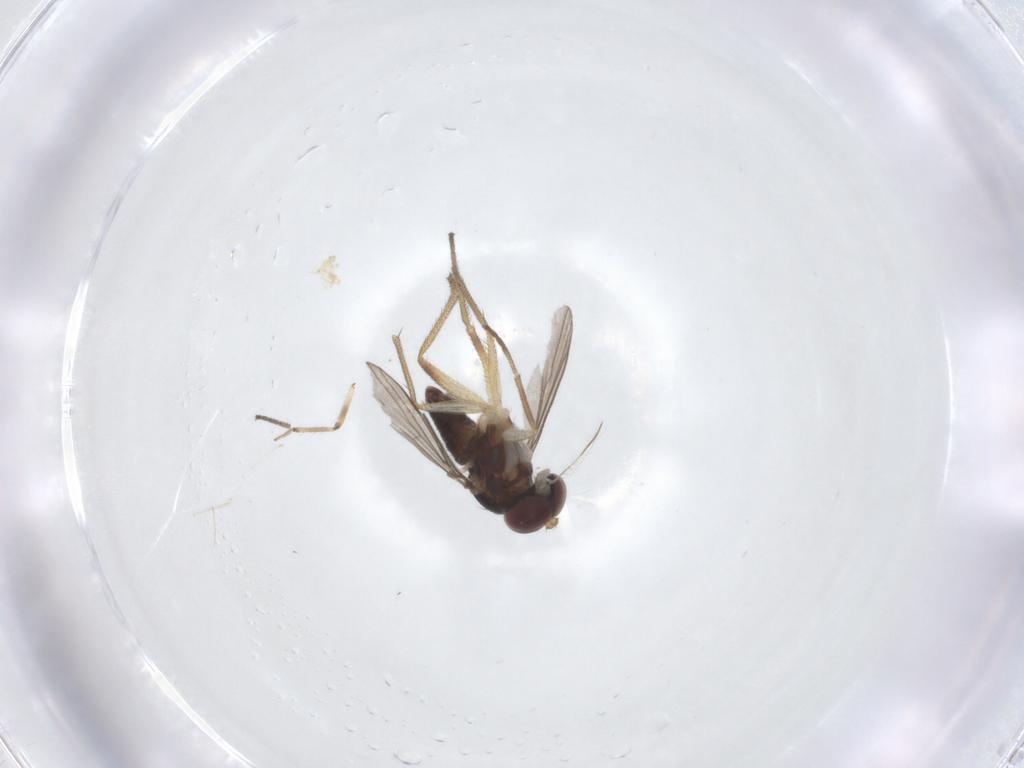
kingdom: Animalia
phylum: Arthropoda
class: Insecta
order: Diptera
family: Dolichopodidae
